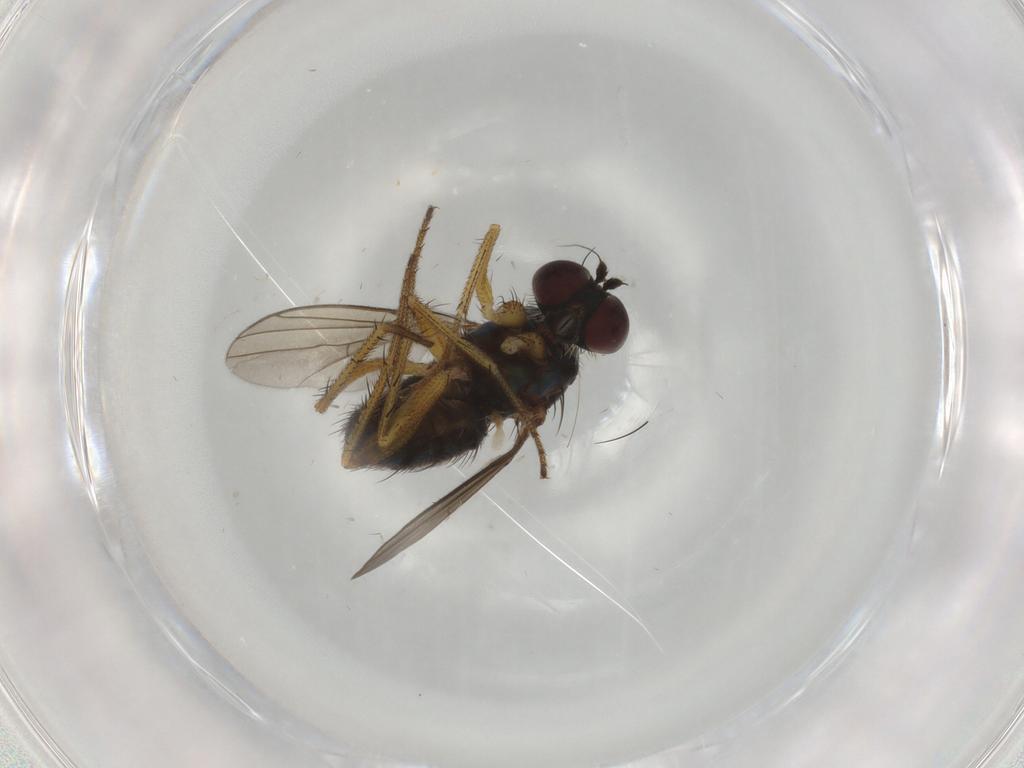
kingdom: Animalia
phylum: Arthropoda
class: Insecta
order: Diptera
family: Dolichopodidae
